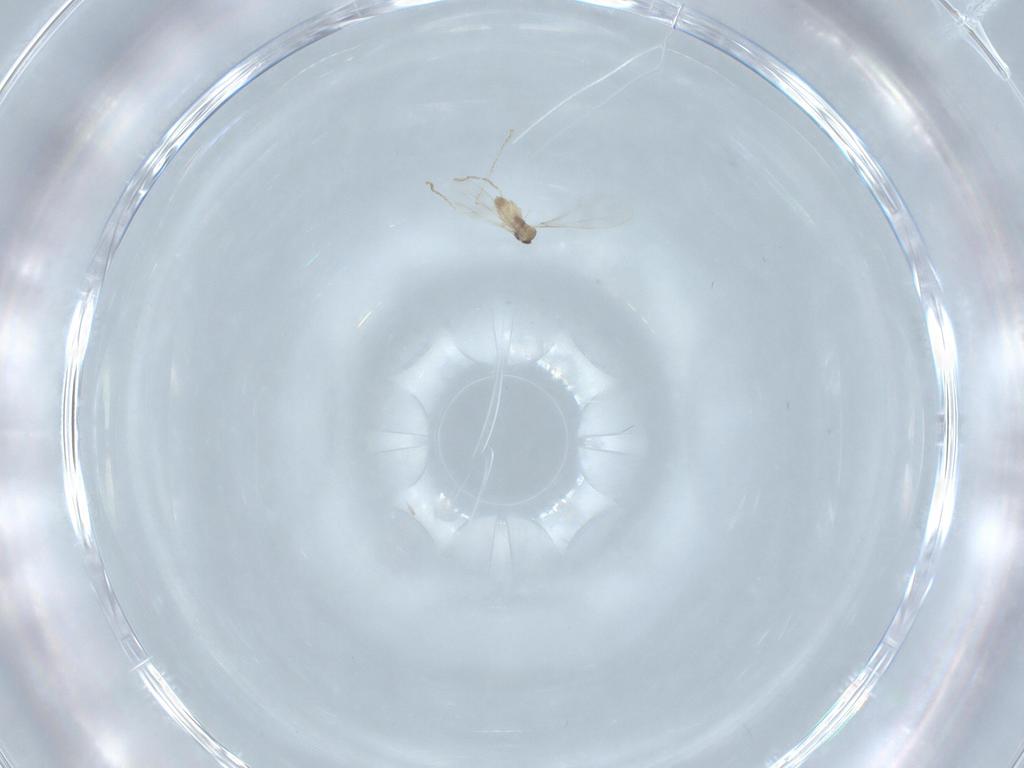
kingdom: Animalia
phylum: Arthropoda
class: Insecta
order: Diptera
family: Cecidomyiidae
